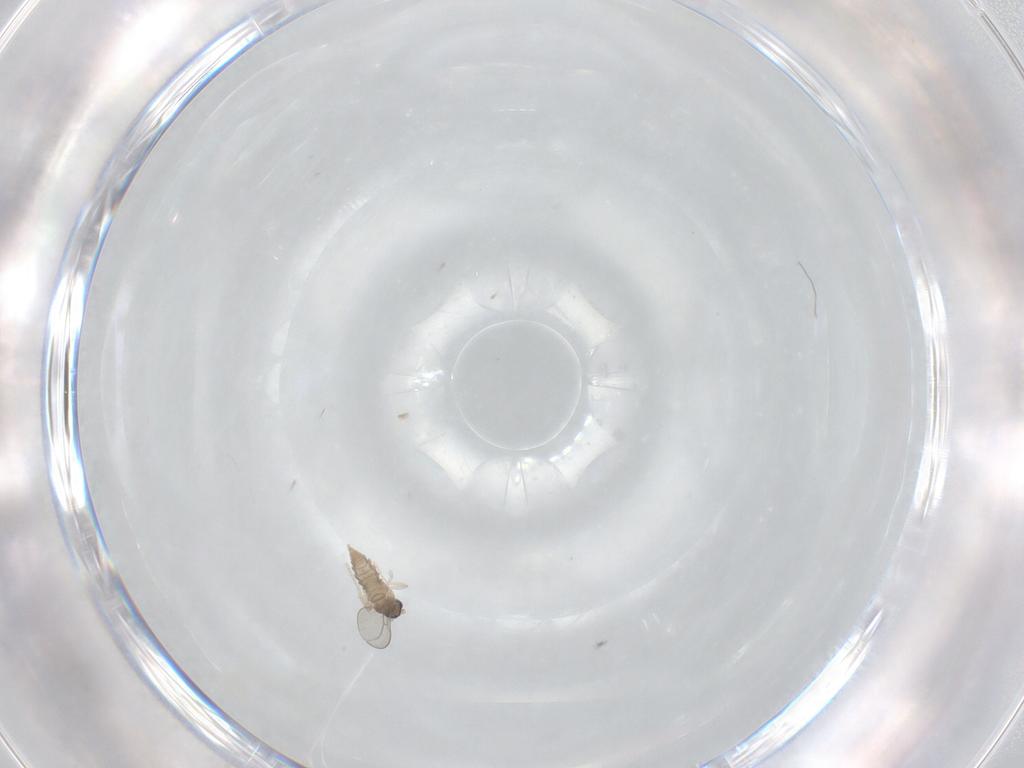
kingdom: Animalia
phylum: Arthropoda
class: Insecta
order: Diptera
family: Cecidomyiidae
